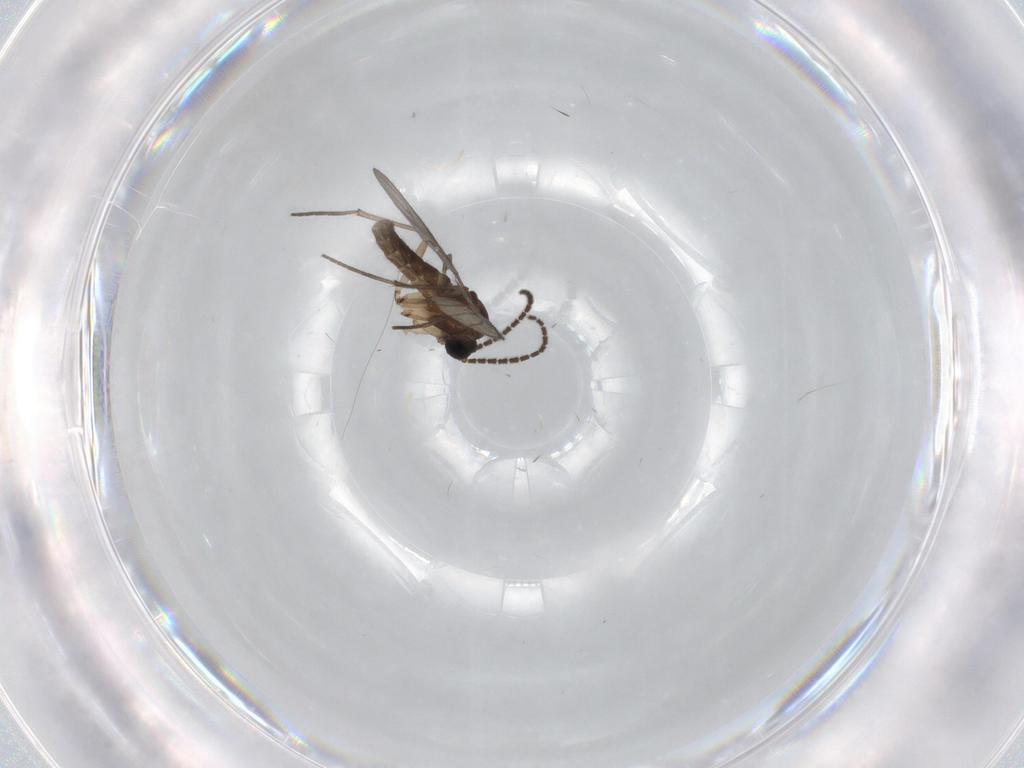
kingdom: Animalia
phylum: Arthropoda
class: Insecta
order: Diptera
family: Sciaridae
